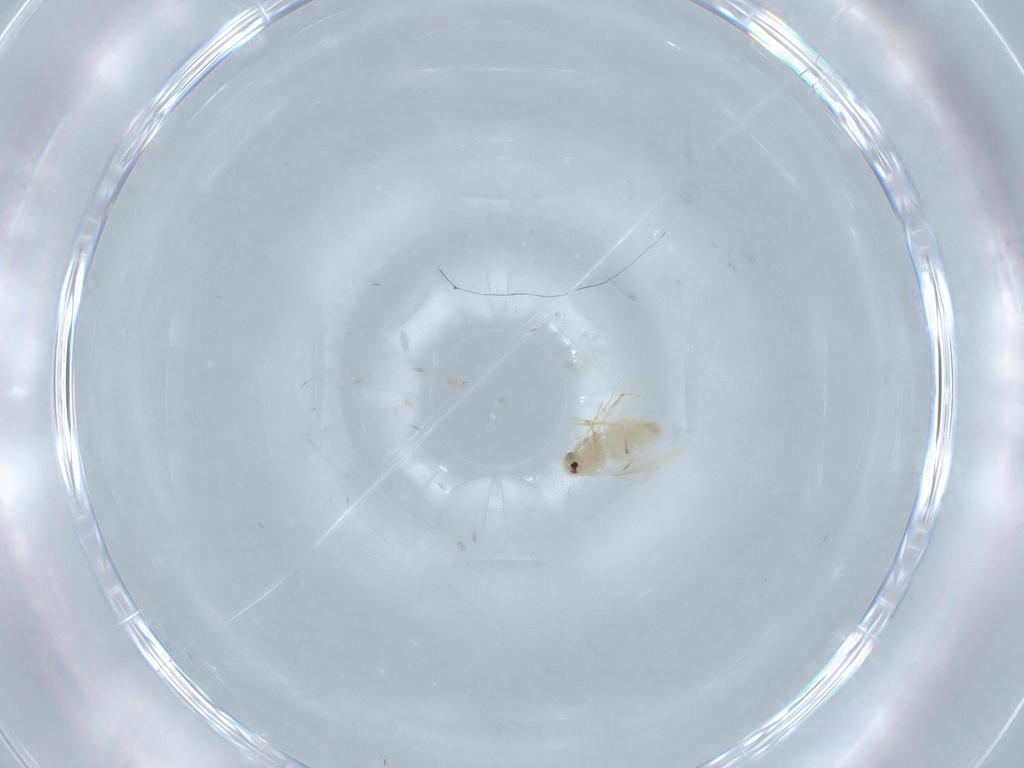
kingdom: Animalia
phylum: Arthropoda
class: Insecta
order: Hemiptera
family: Aleyrodidae
